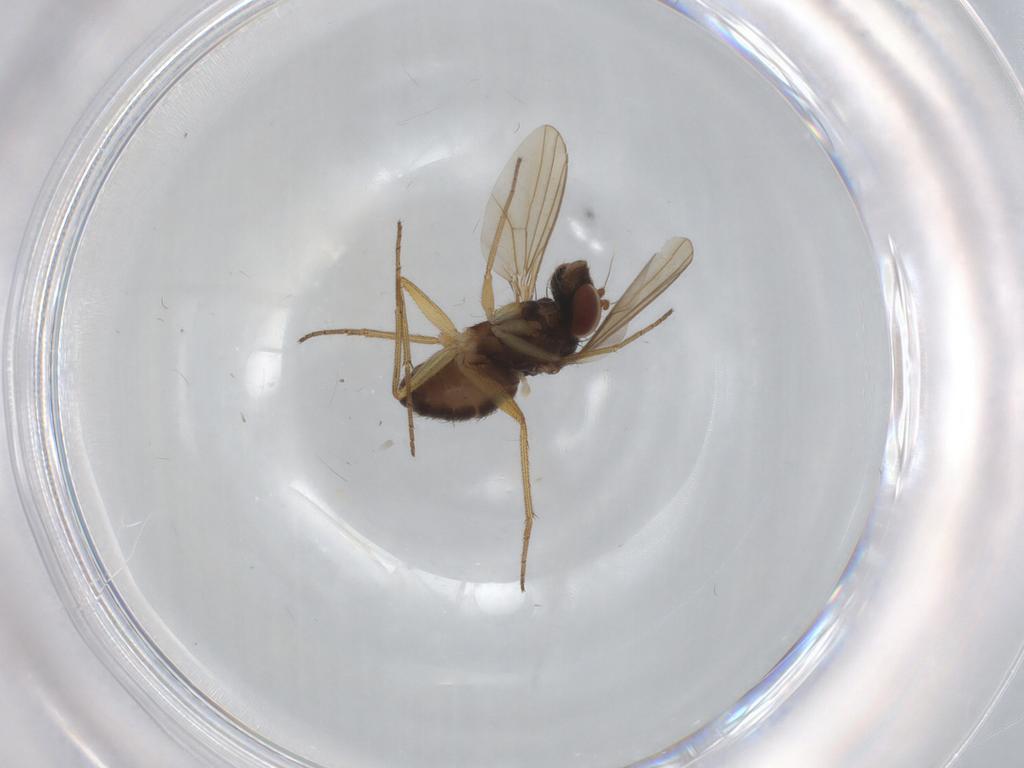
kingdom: Animalia
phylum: Arthropoda
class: Insecta
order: Diptera
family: Dolichopodidae
